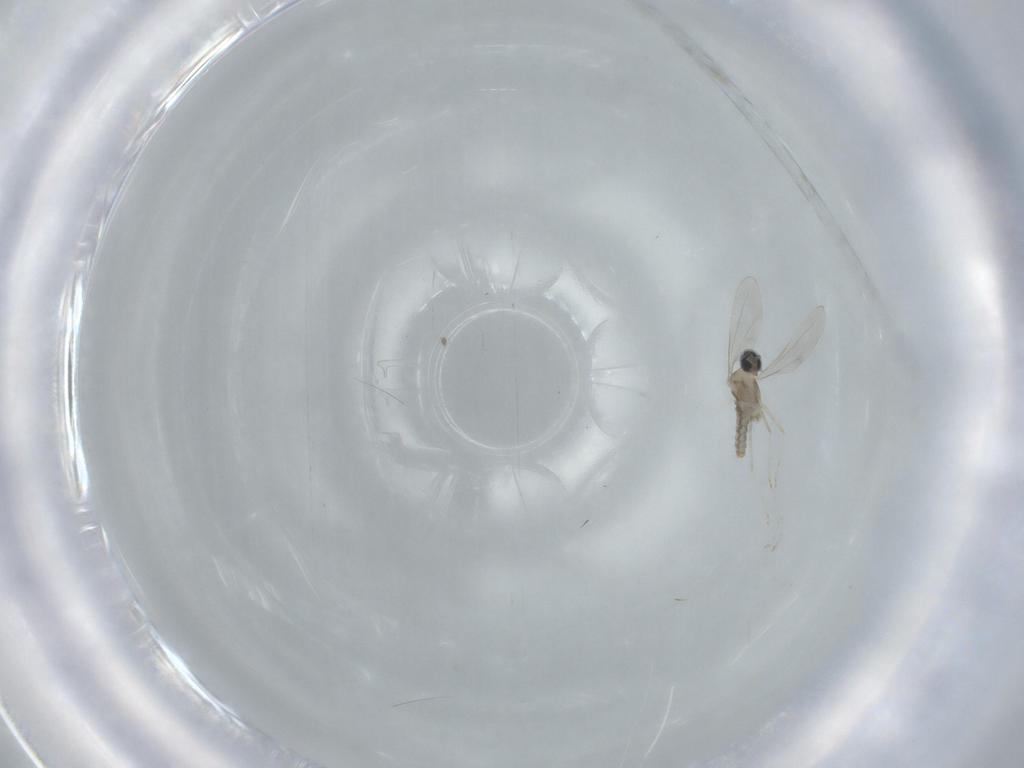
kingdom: Animalia
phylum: Arthropoda
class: Insecta
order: Diptera
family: Cecidomyiidae
